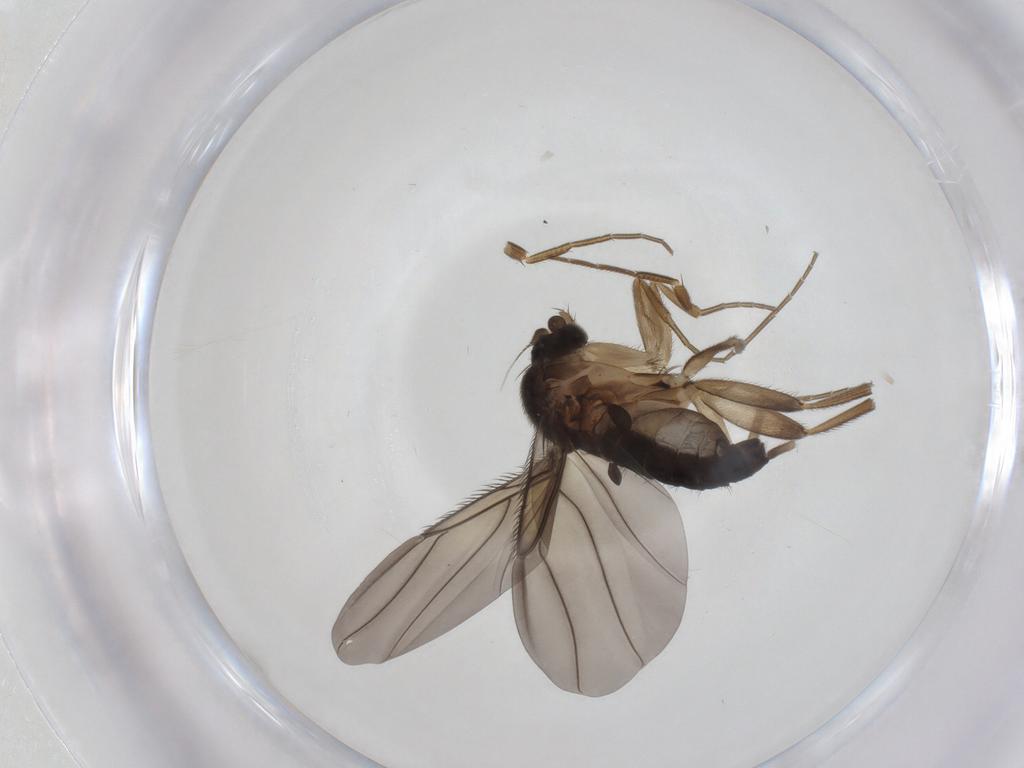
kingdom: Animalia
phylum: Arthropoda
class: Insecta
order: Diptera
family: Phoridae
